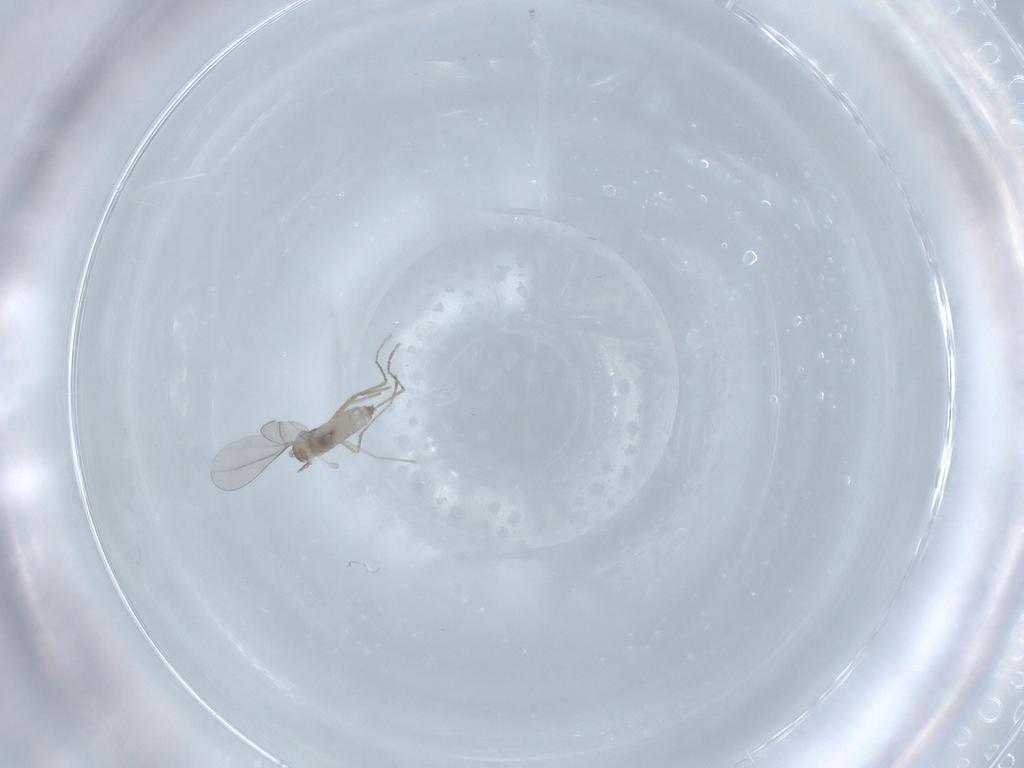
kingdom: Animalia
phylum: Arthropoda
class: Insecta
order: Diptera
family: Cecidomyiidae
